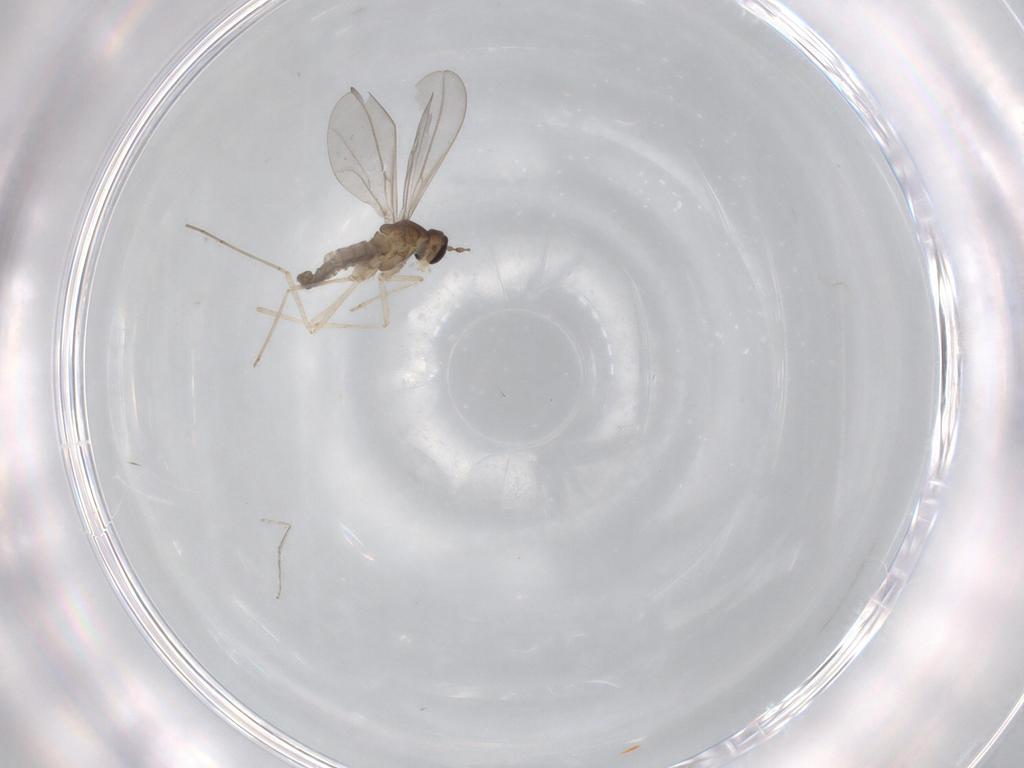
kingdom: Animalia
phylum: Arthropoda
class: Insecta
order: Diptera
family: Cecidomyiidae
